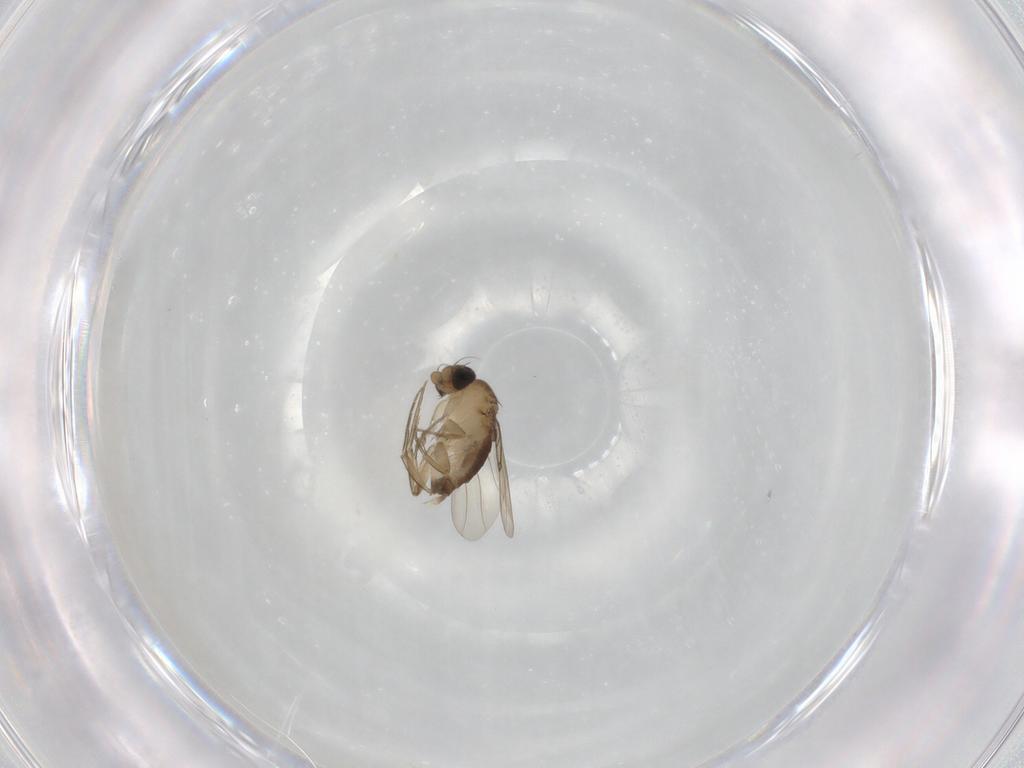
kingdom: Animalia
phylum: Arthropoda
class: Insecta
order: Diptera
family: Phoridae
